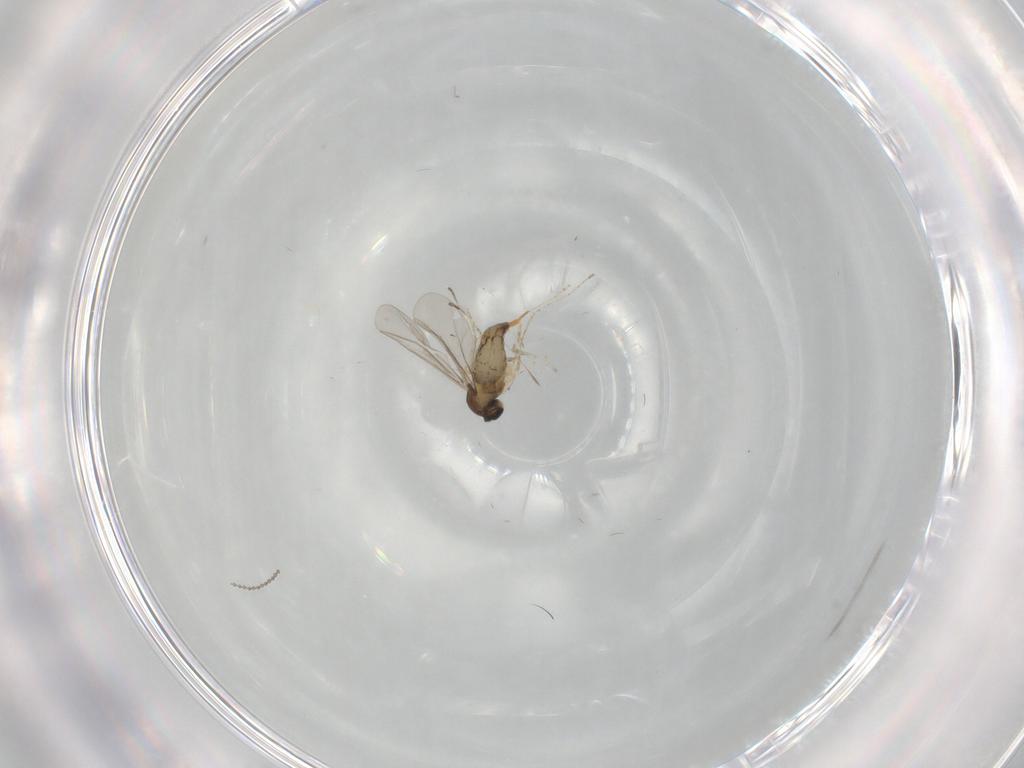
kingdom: Animalia
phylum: Arthropoda
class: Insecta
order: Diptera
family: Cecidomyiidae
